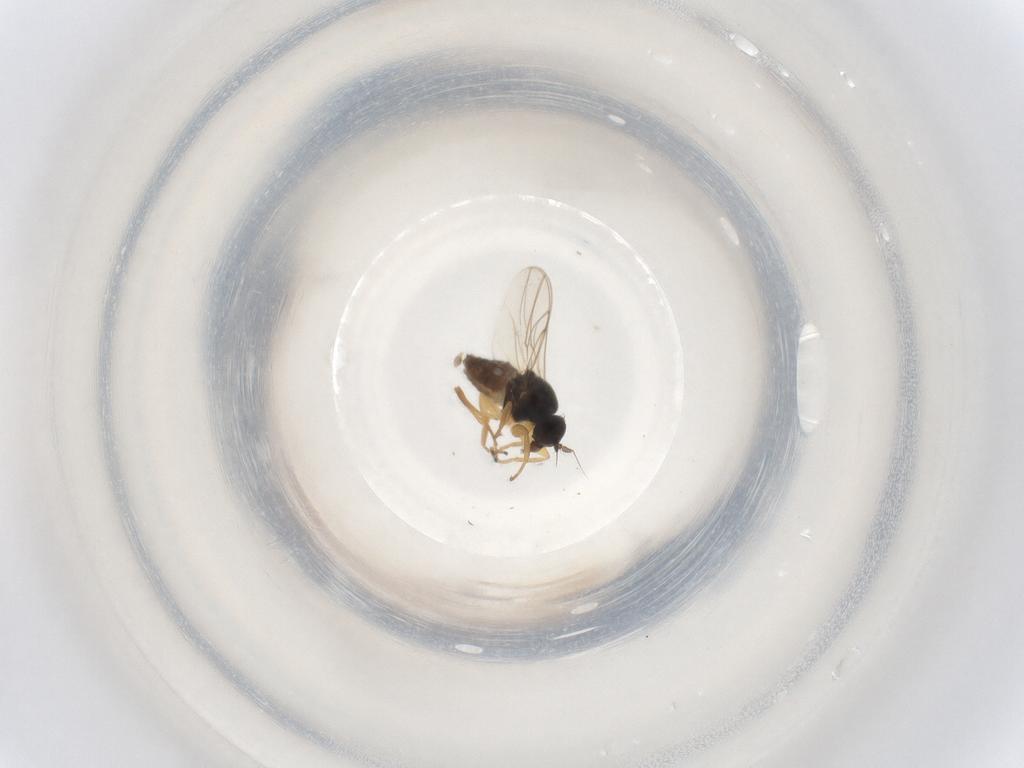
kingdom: Animalia
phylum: Arthropoda
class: Insecta
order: Diptera
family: Hybotidae
